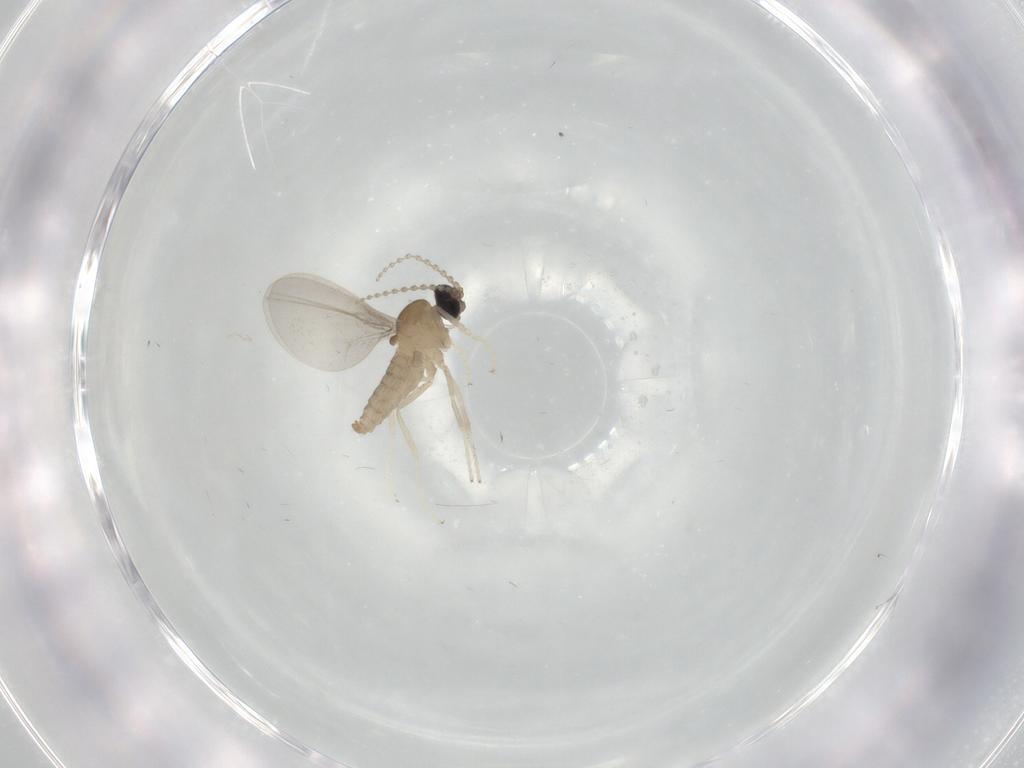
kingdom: Animalia
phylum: Arthropoda
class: Insecta
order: Diptera
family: Cecidomyiidae
